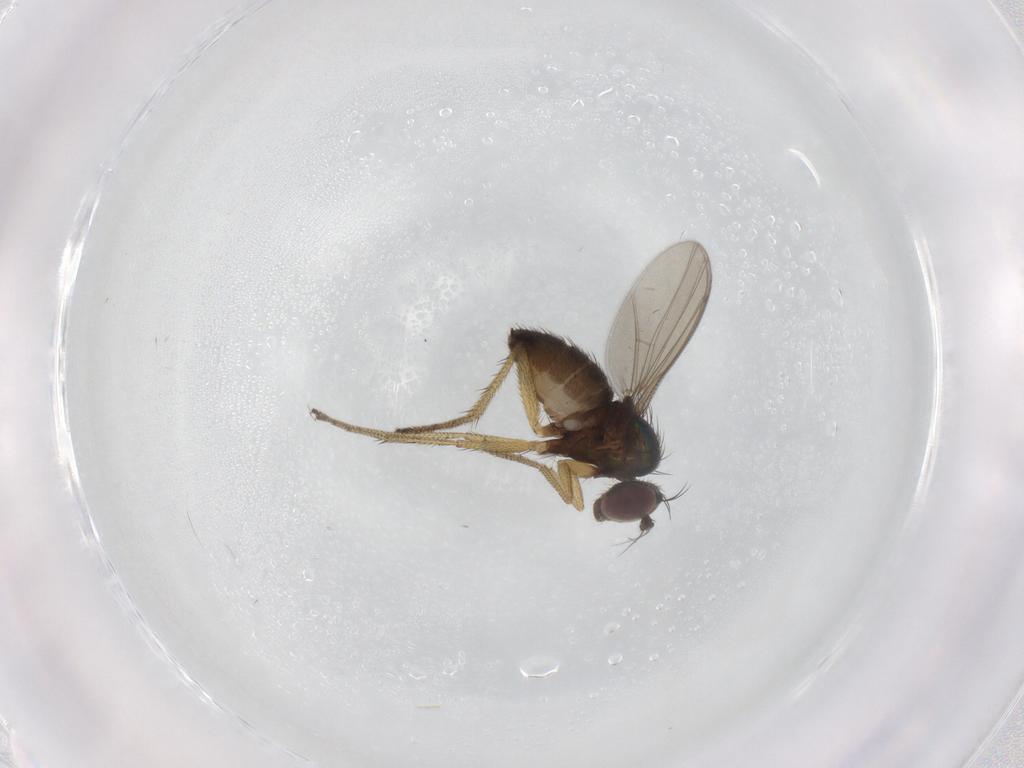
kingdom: Animalia
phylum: Arthropoda
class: Insecta
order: Diptera
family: Dolichopodidae
